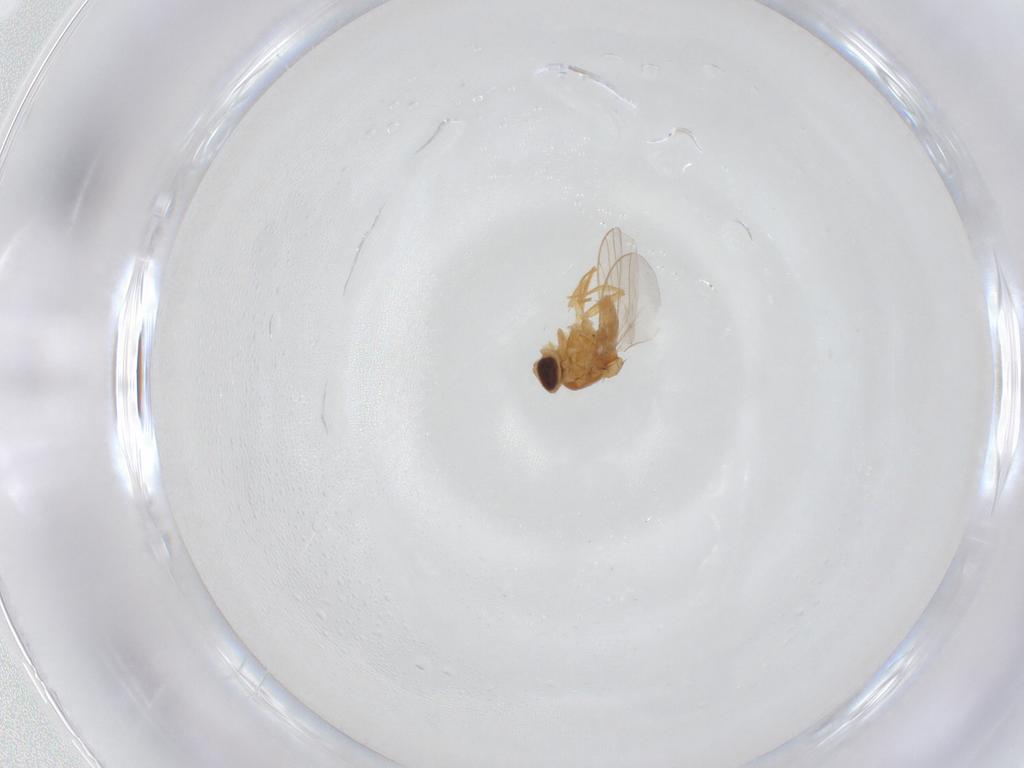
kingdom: Animalia
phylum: Arthropoda
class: Insecta
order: Diptera
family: Chloropidae
